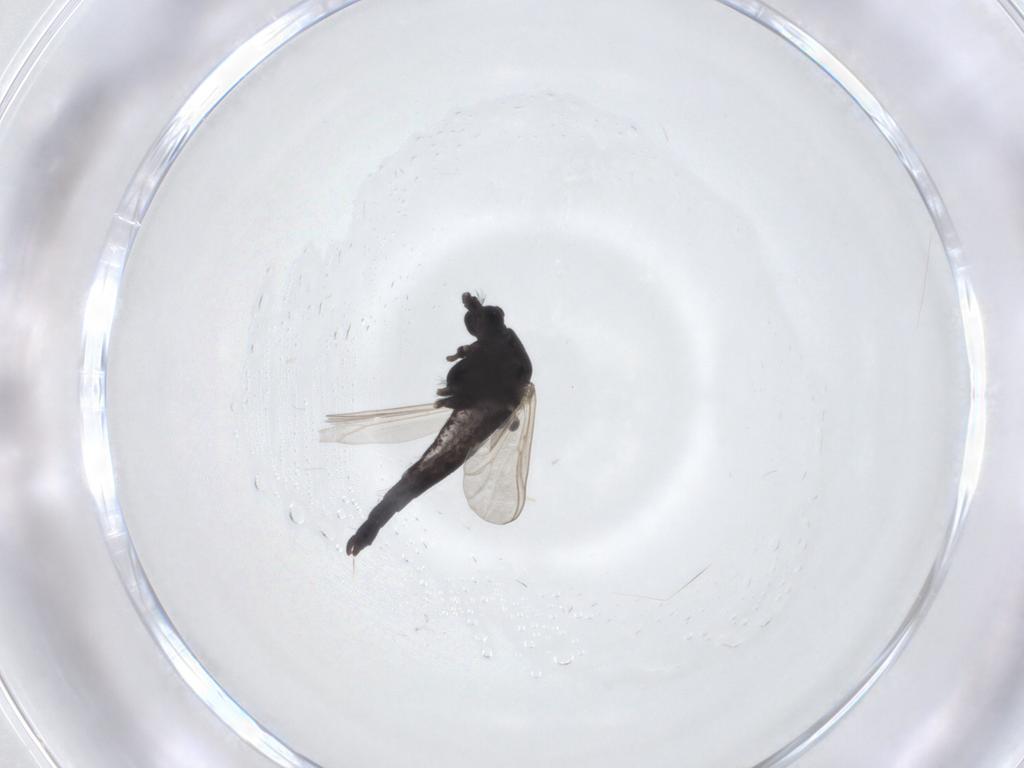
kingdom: Animalia
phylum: Arthropoda
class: Insecta
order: Diptera
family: Chironomidae
